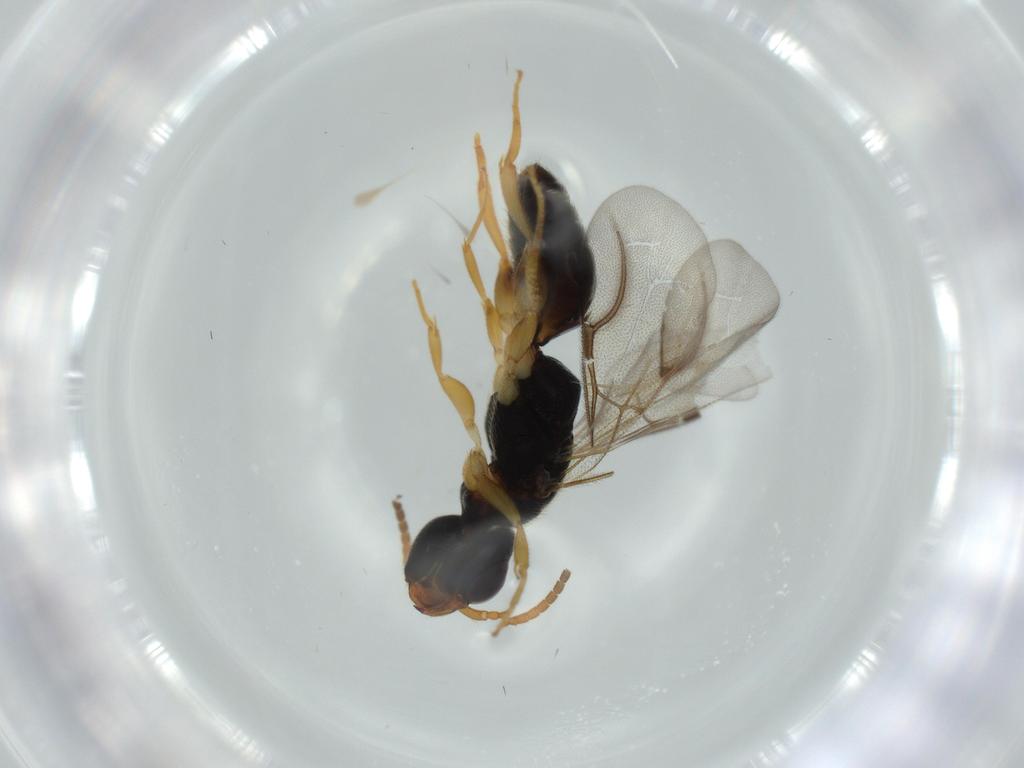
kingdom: Animalia
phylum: Arthropoda
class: Insecta
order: Hymenoptera
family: Bethylidae
